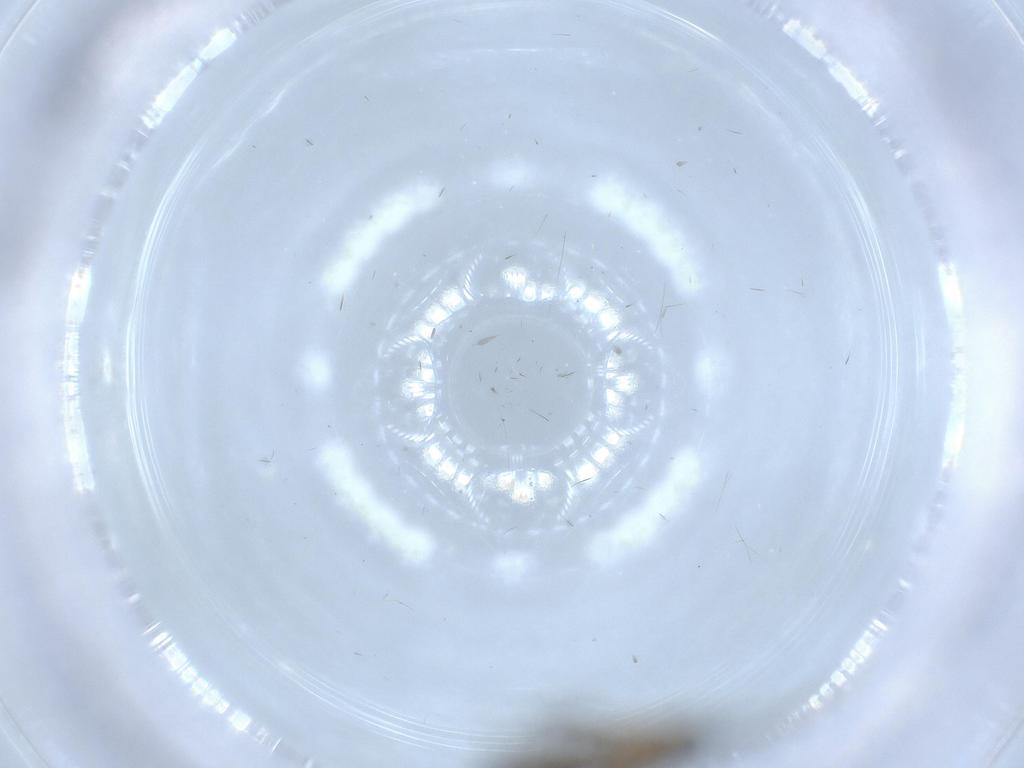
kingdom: Animalia
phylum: Arthropoda
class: Insecta
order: Diptera
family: Sciaridae
